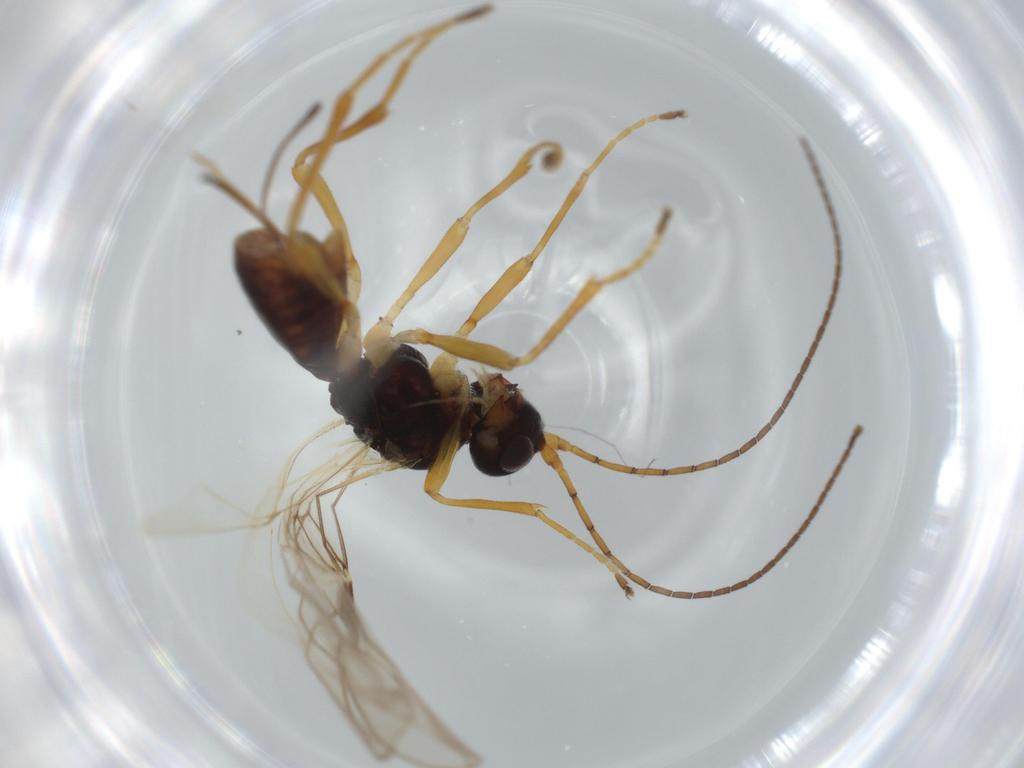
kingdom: Animalia
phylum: Arthropoda
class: Insecta
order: Hymenoptera
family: Braconidae
